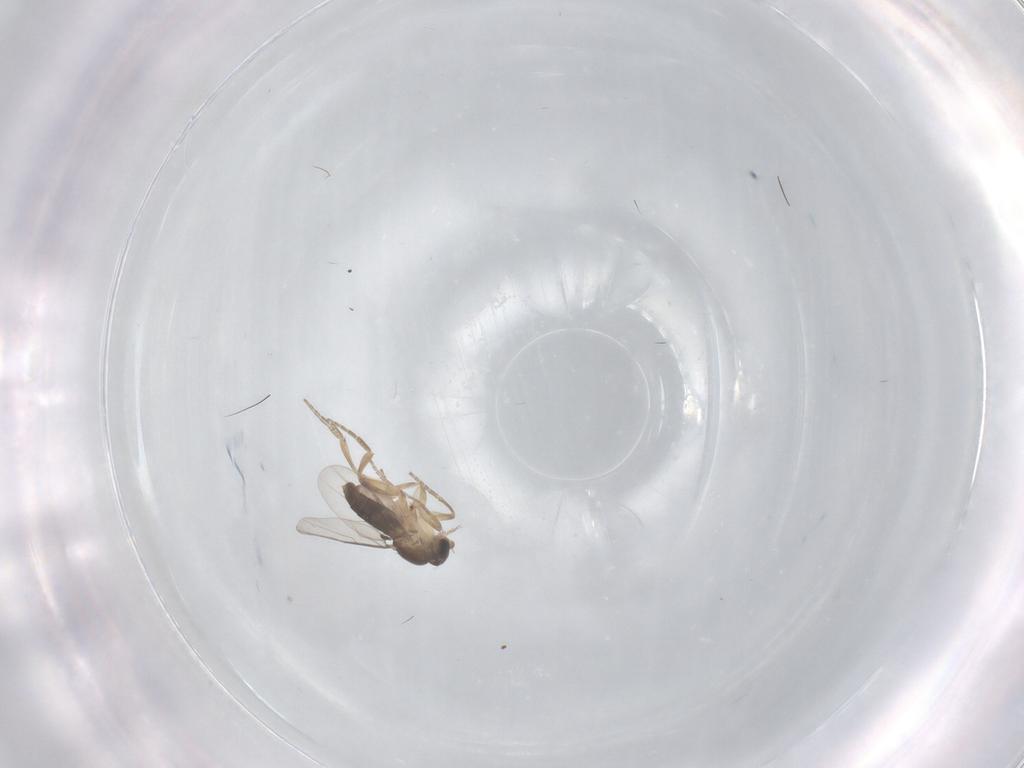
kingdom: Animalia
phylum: Arthropoda
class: Insecta
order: Diptera
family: Phoridae
